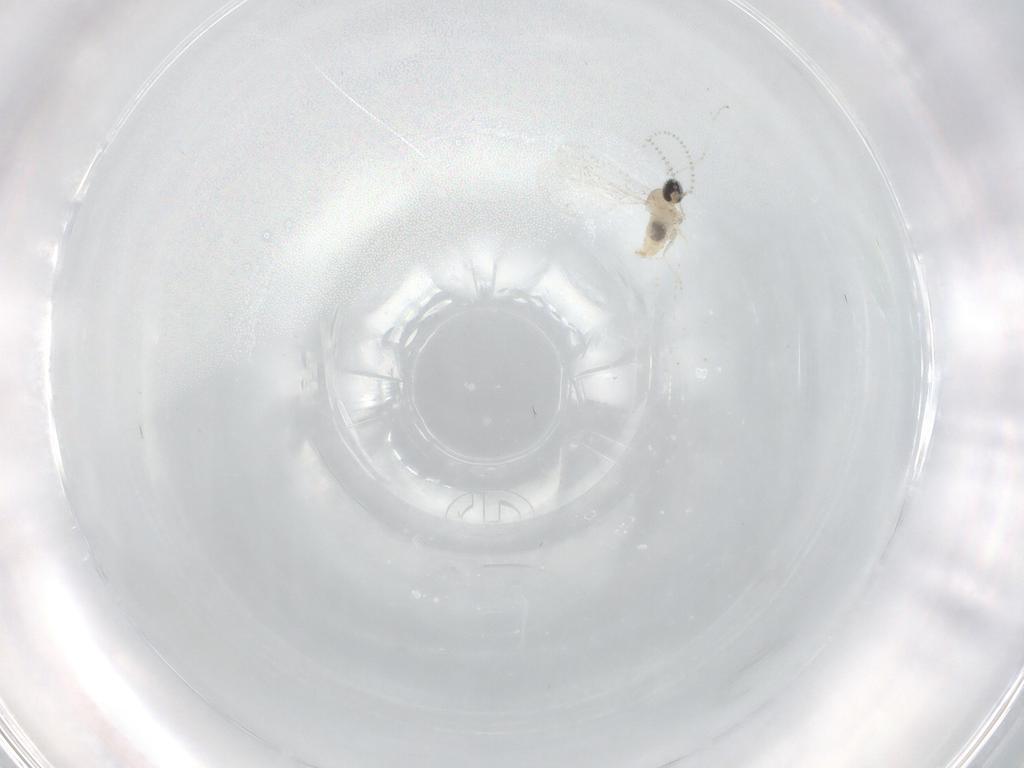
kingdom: Animalia
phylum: Arthropoda
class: Insecta
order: Diptera
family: Cecidomyiidae
